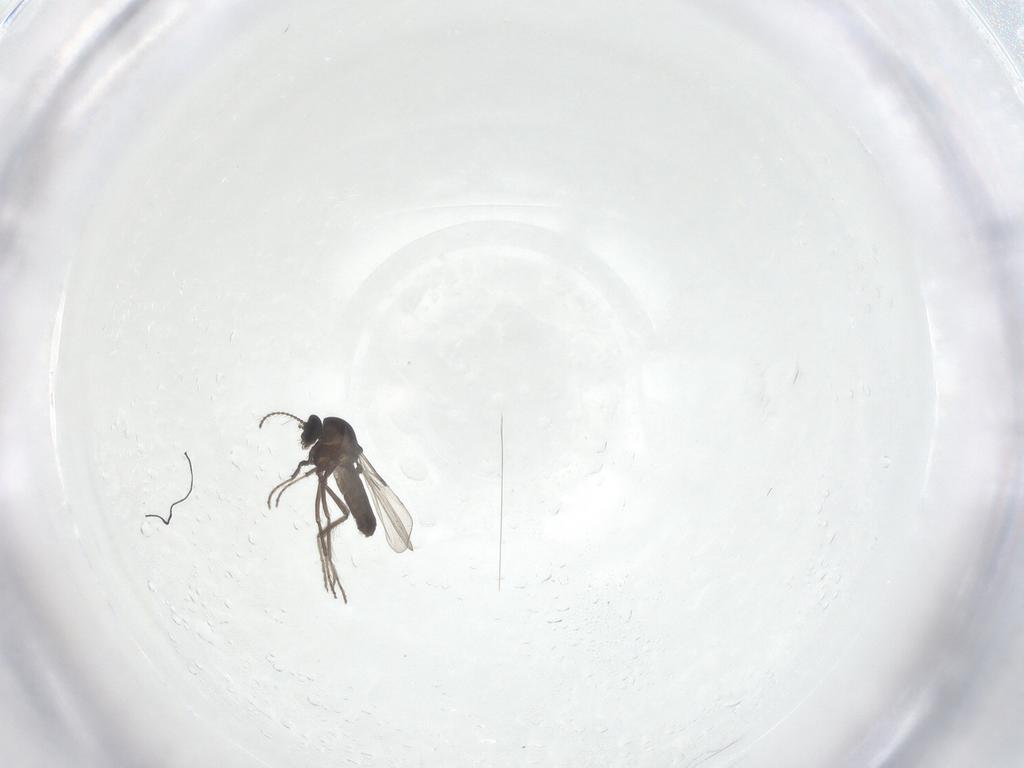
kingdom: Animalia
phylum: Arthropoda
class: Insecta
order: Diptera
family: Ceratopogonidae
